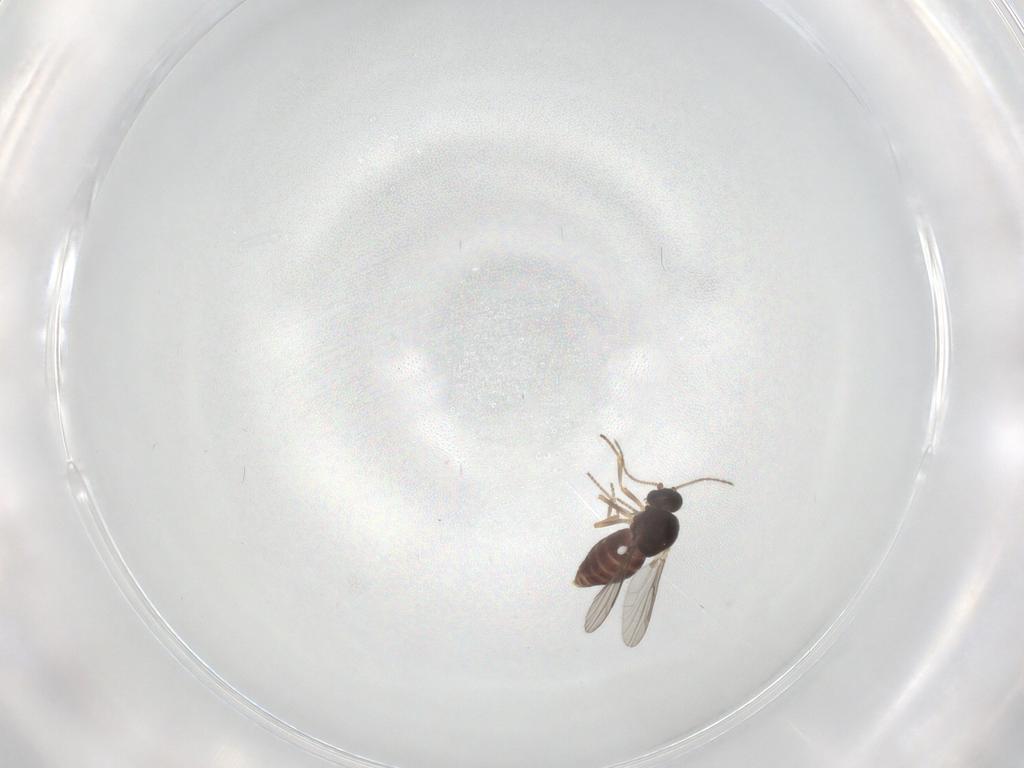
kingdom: Animalia
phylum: Arthropoda
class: Insecta
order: Diptera
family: Ceratopogonidae
